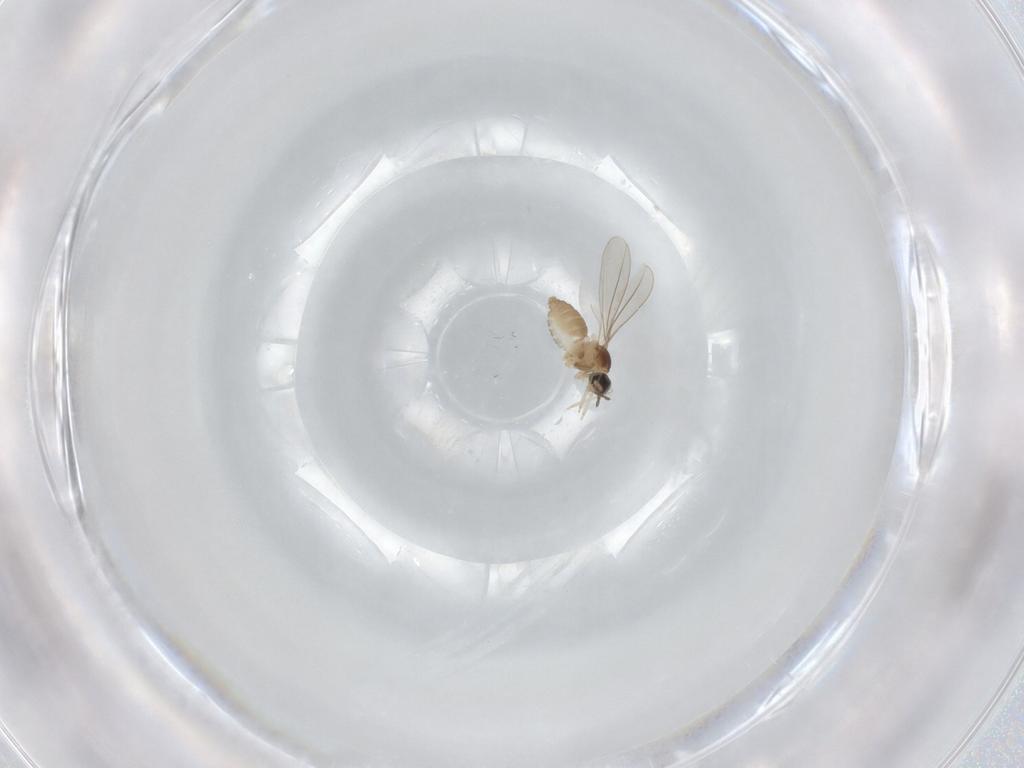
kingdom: Animalia
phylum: Arthropoda
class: Insecta
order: Diptera
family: Cecidomyiidae
